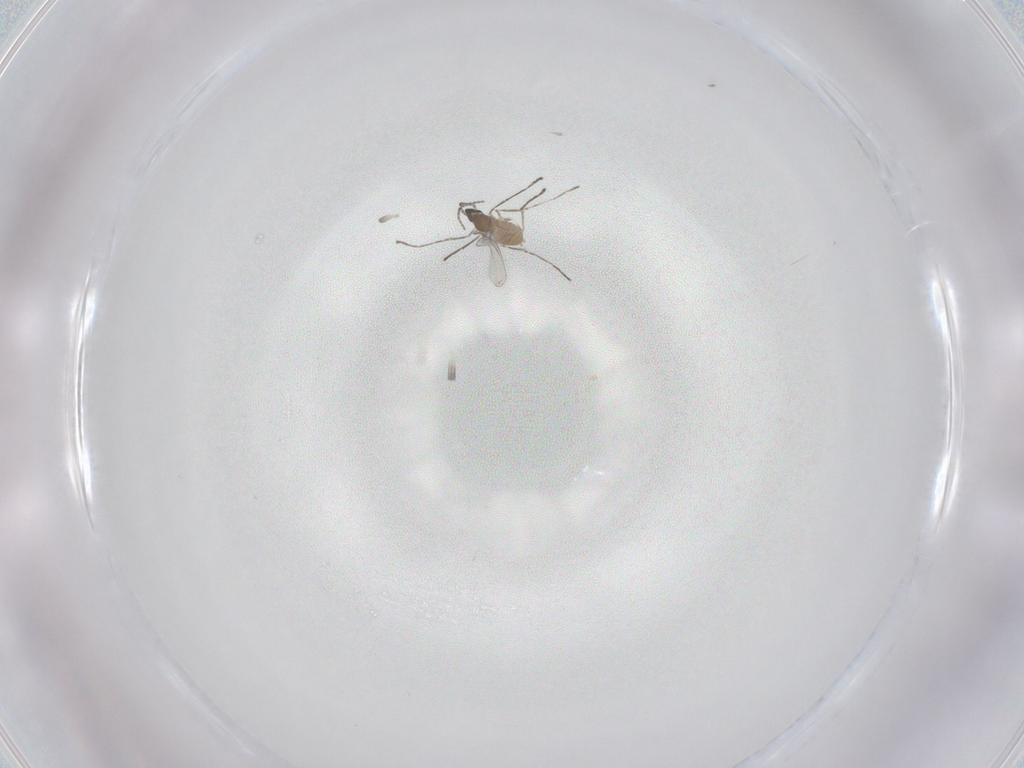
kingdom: Animalia
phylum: Arthropoda
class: Insecta
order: Diptera
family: Cecidomyiidae
